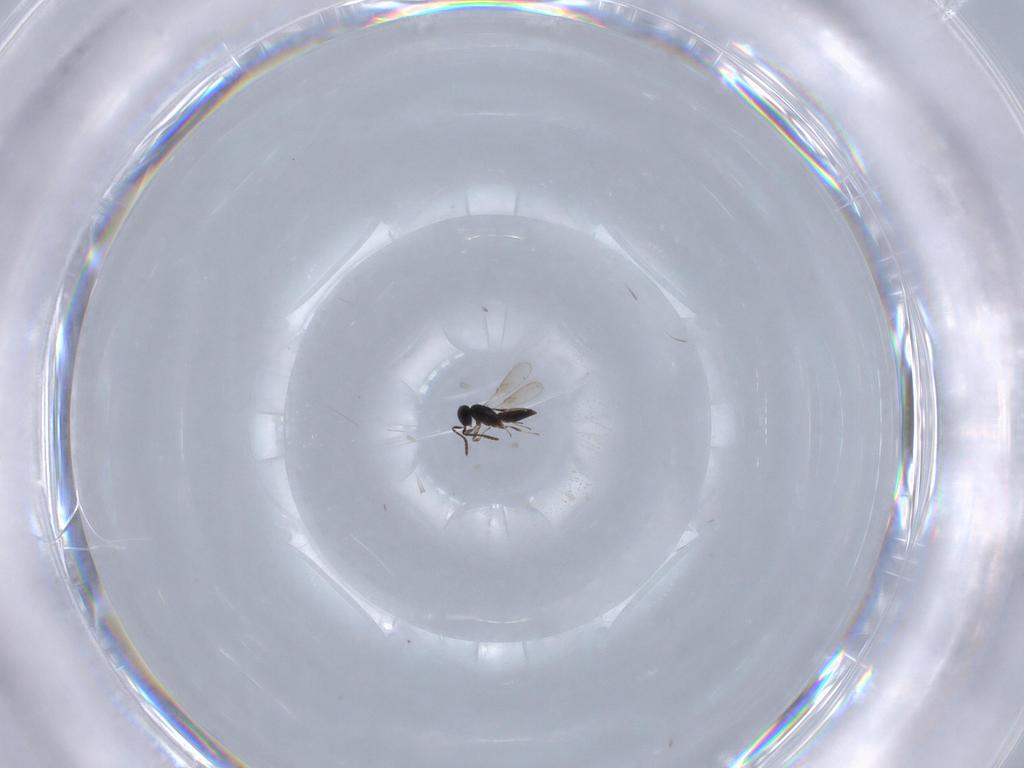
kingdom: Animalia
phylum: Arthropoda
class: Insecta
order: Hymenoptera
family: Scelionidae
